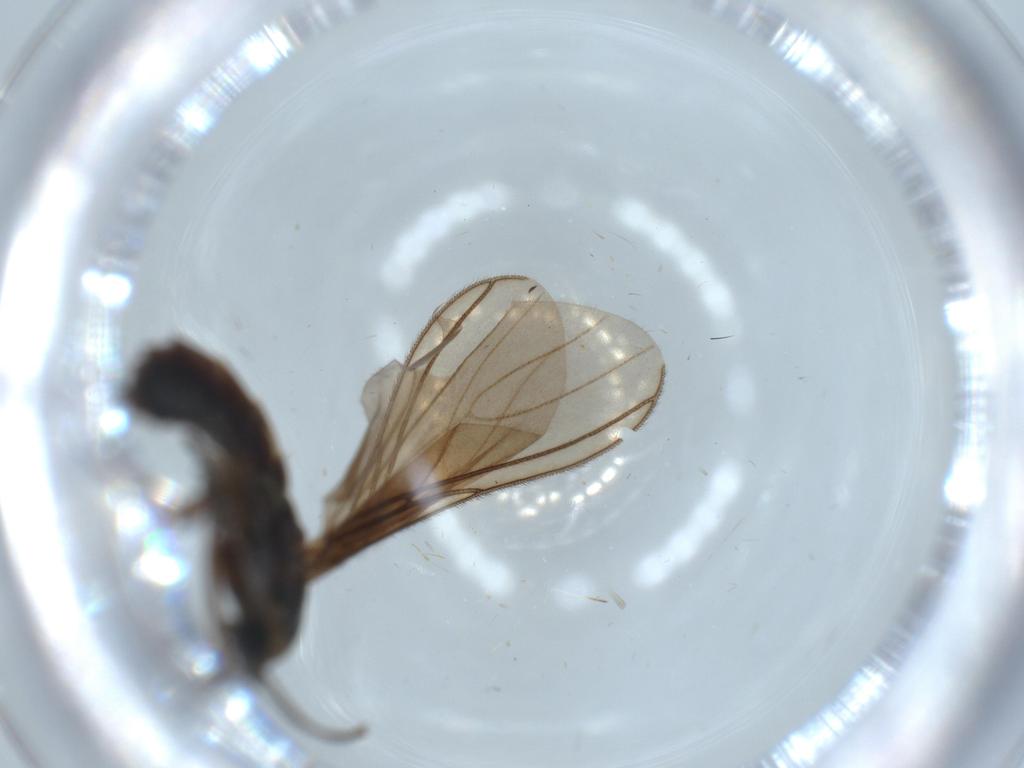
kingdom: Animalia
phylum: Arthropoda
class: Insecta
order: Diptera
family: Sciaridae
